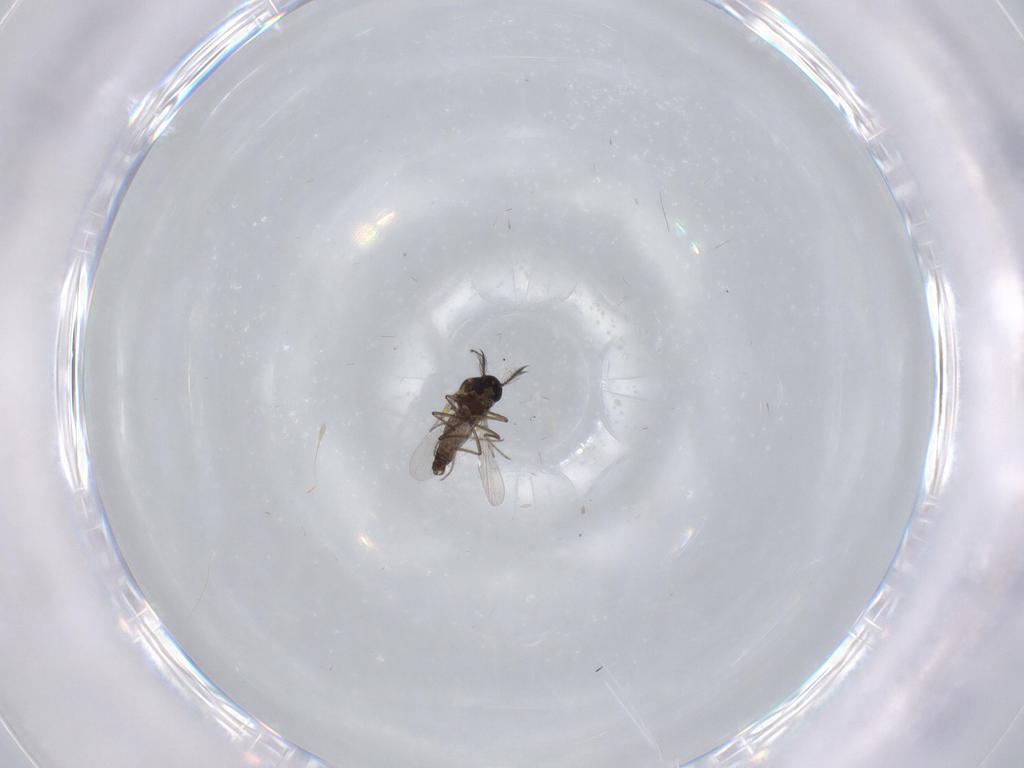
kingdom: Animalia
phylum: Arthropoda
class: Insecta
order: Diptera
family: Ceratopogonidae
